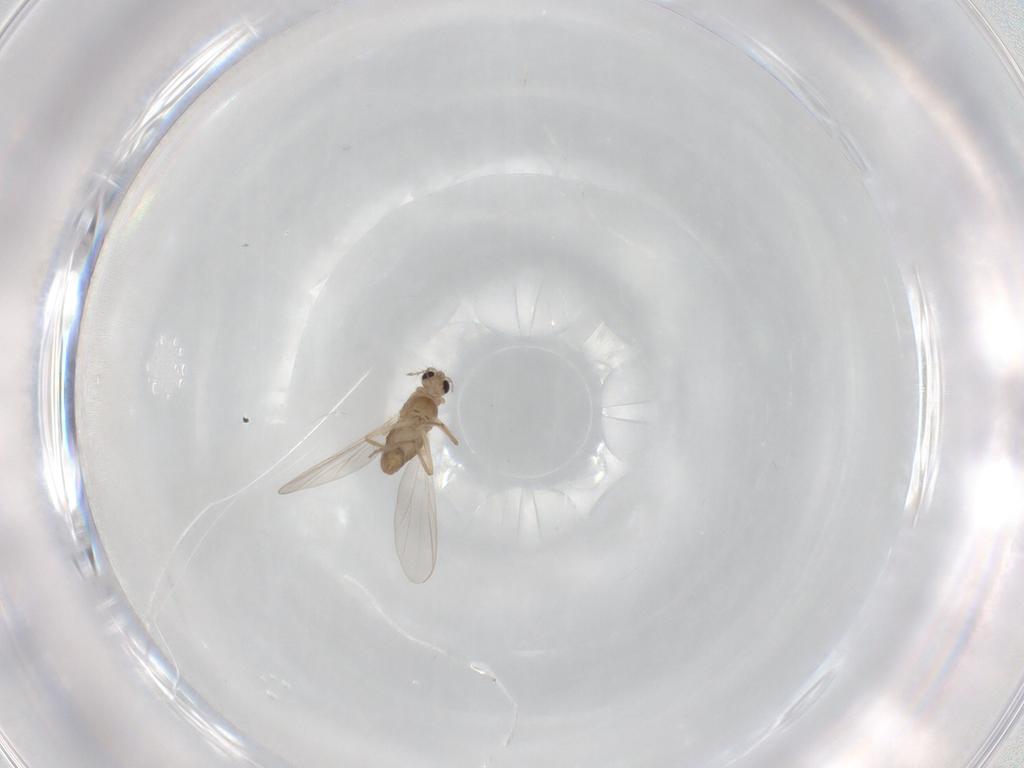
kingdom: Animalia
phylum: Arthropoda
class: Insecta
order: Diptera
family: Chironomidae
